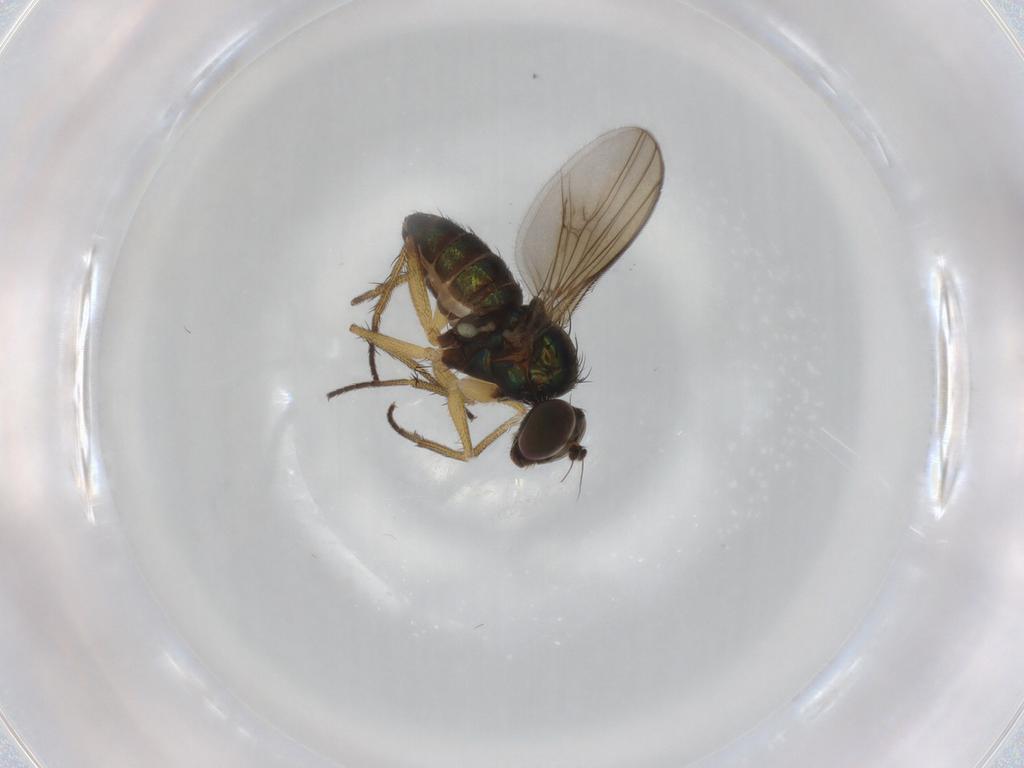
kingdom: Animalia
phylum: Arthropoda
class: Insecta
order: Diptera
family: Dolichopodidae
